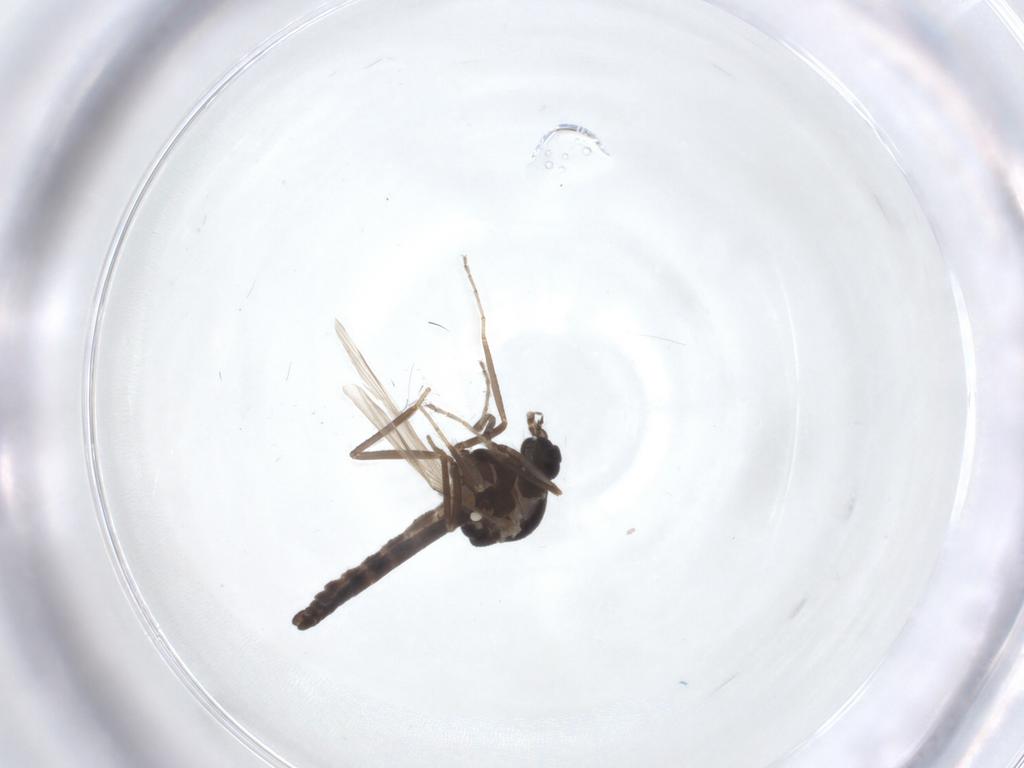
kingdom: Animalia
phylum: Arthropoda
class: Insecta
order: Diptera
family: Ceratopogonidae
